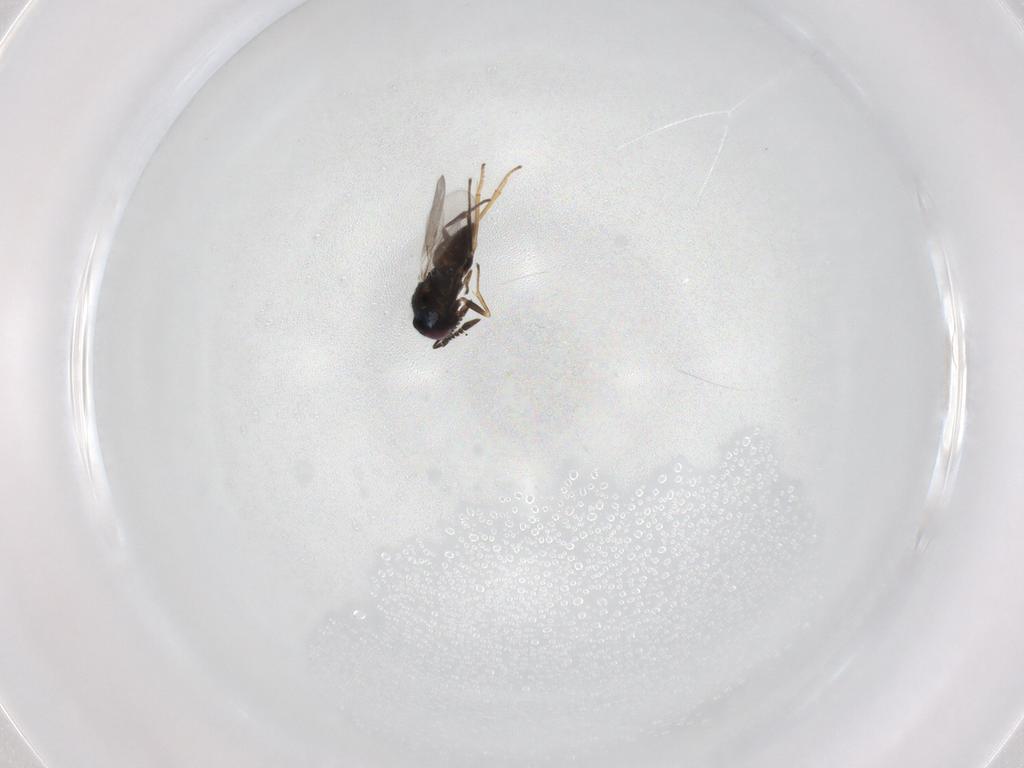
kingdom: Animalia
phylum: Arthropoda
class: Insecta
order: Hymenoptera
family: Encyrtidae
